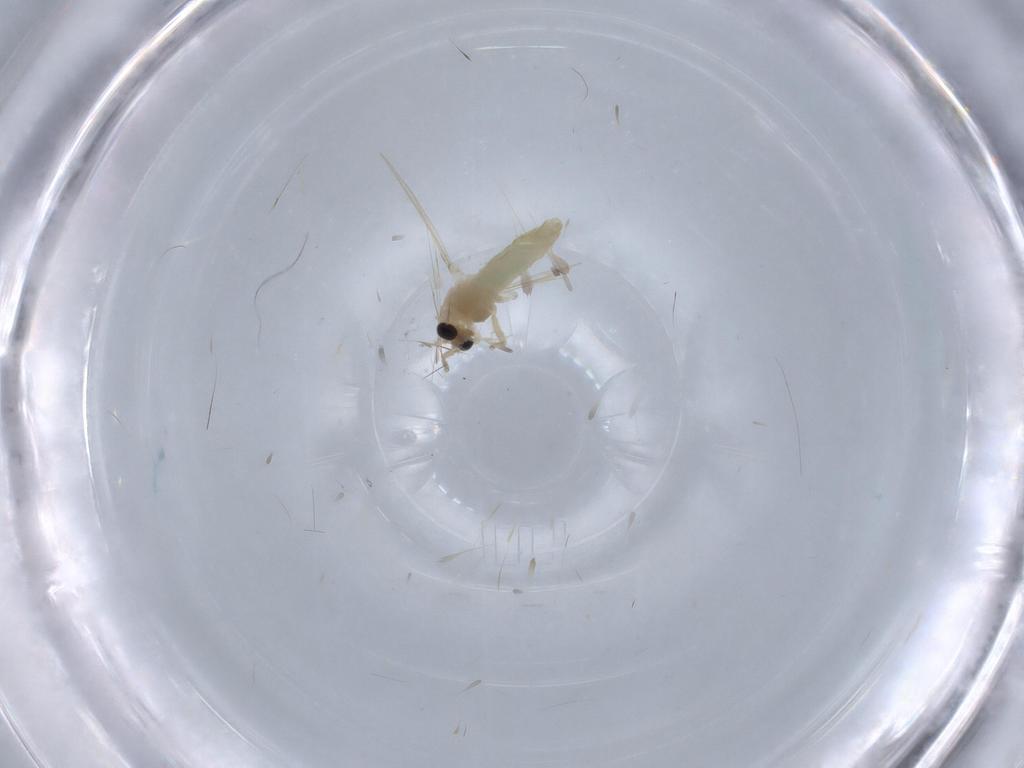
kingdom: Animalia
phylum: Arthropoda
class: Insecta
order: Diptera
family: Chironomidae
